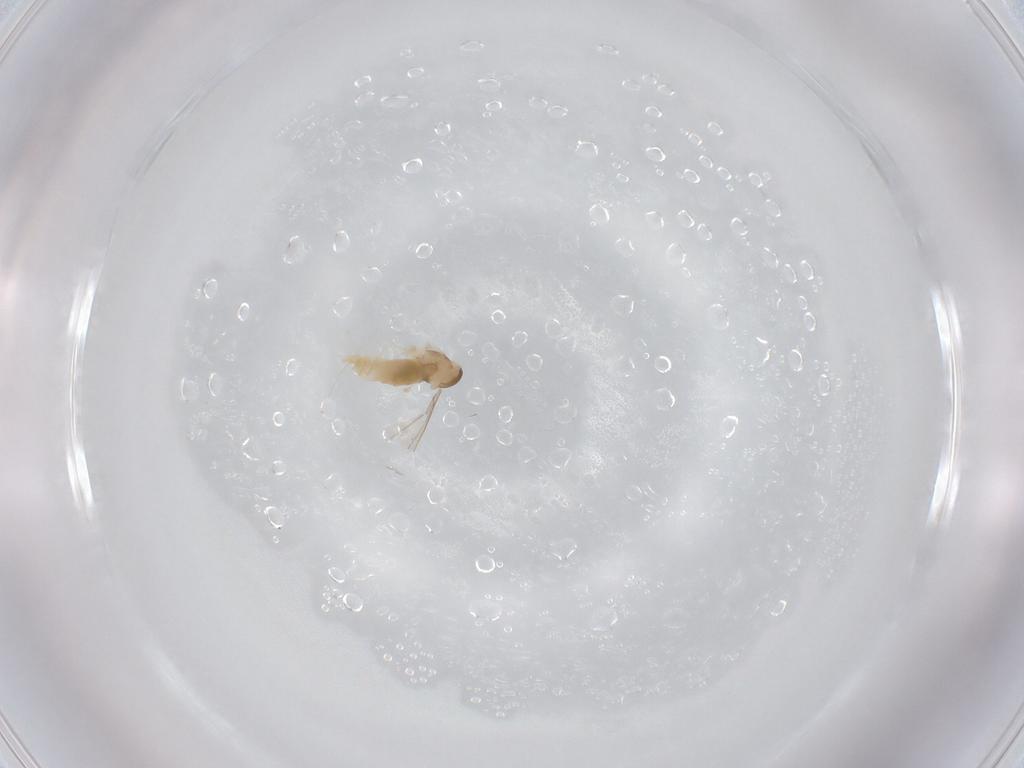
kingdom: Animalia
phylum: Arthropoda
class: Insecta
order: Diptera
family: Cecidomyiidae
